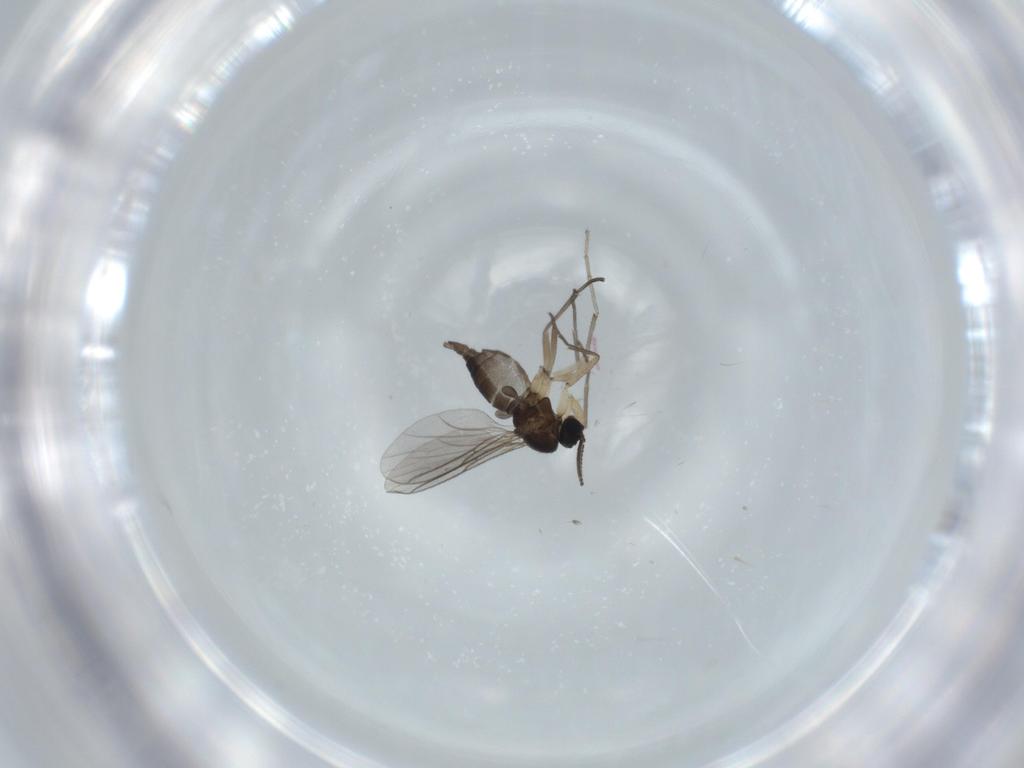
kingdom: Animalia
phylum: Arthropoda
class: Insecta
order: Diptera
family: Sciaridae
